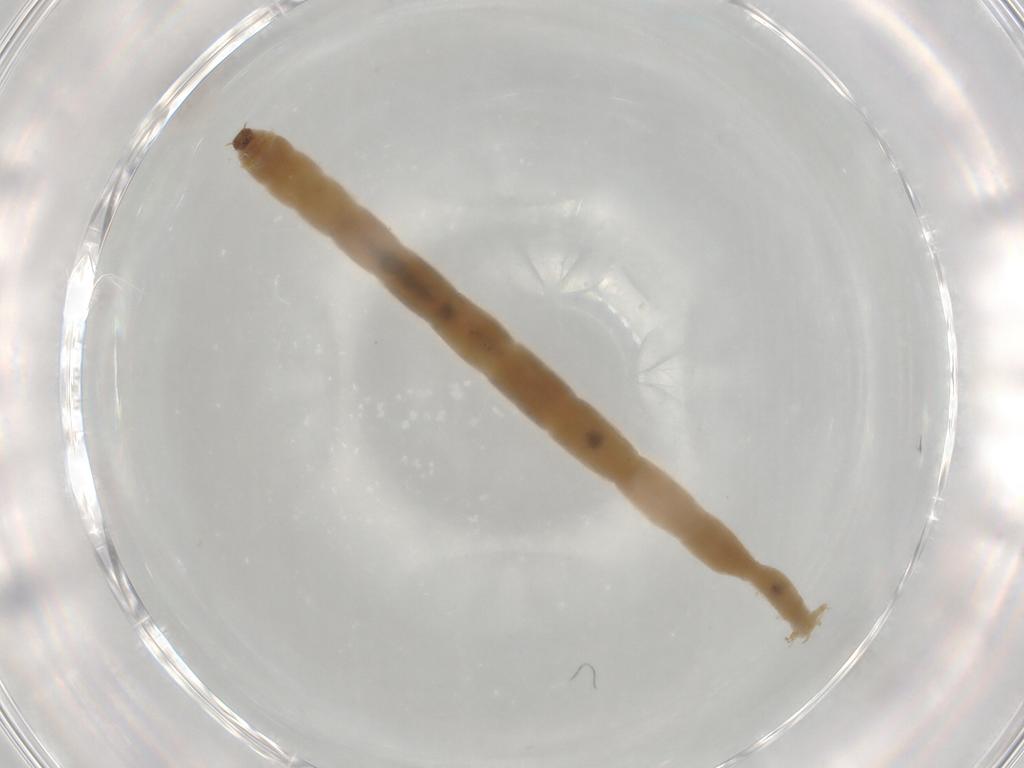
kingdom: Animalia
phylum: Arthropoda
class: Insecta
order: Diptera
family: Chironomidae
